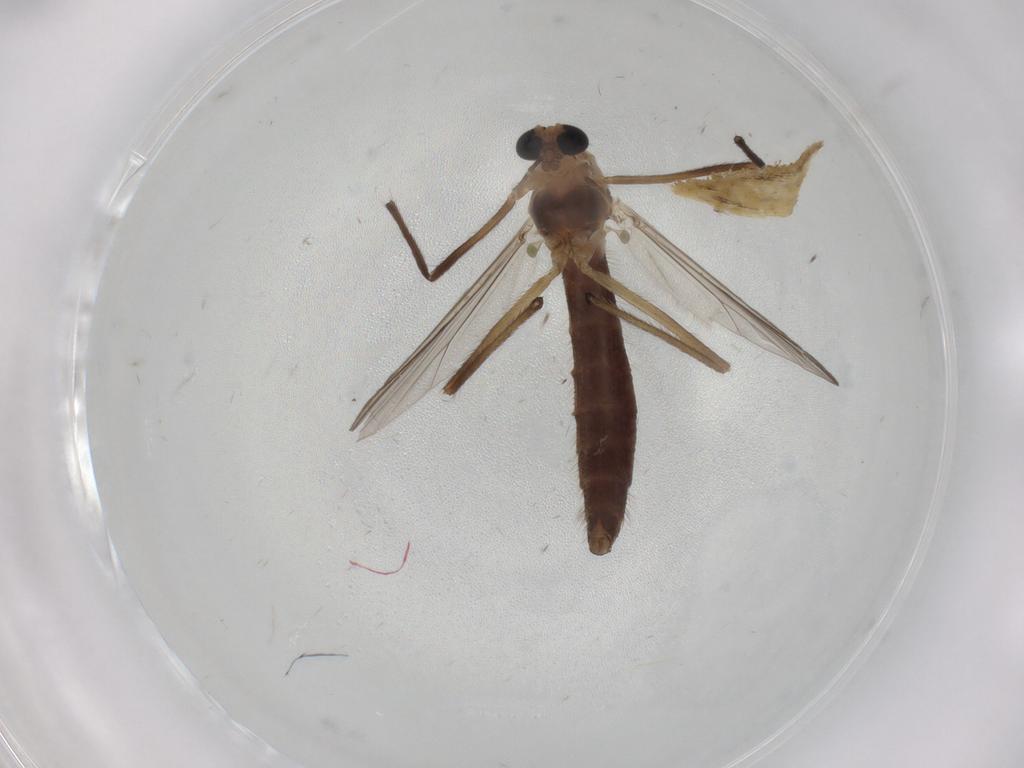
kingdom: Animalia
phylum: Arthropoda
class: Insecta
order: Diptera
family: Chironomidae
